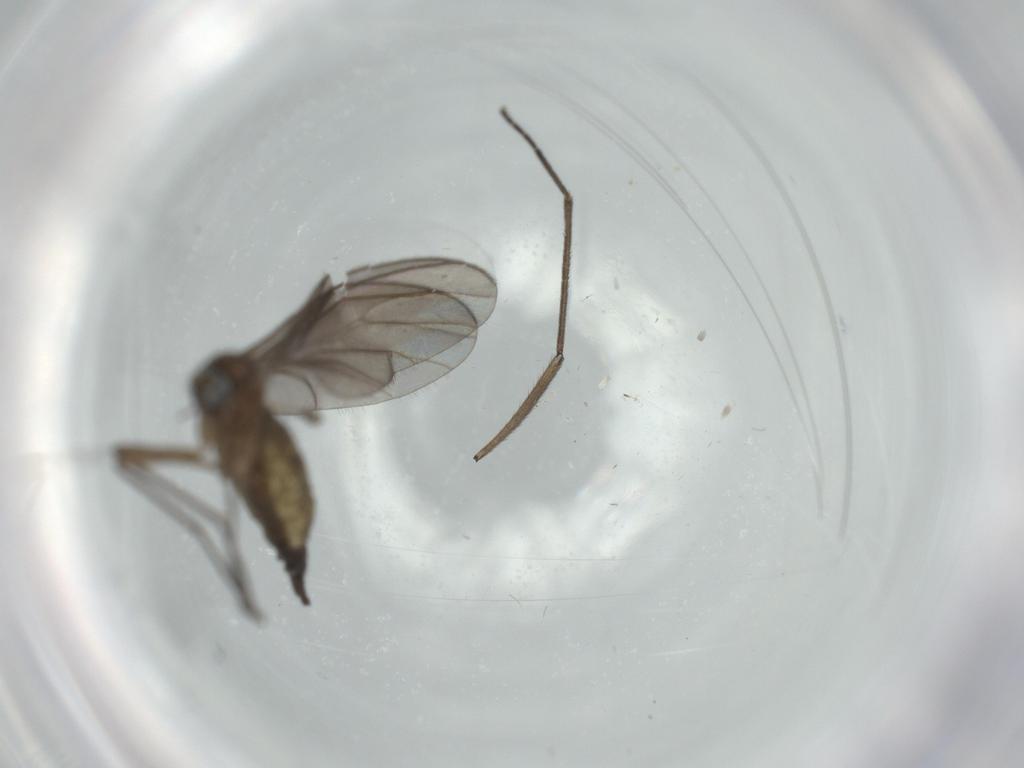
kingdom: Animalia
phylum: Arthropoda
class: Insecta
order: Diptera
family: Sciaridae
